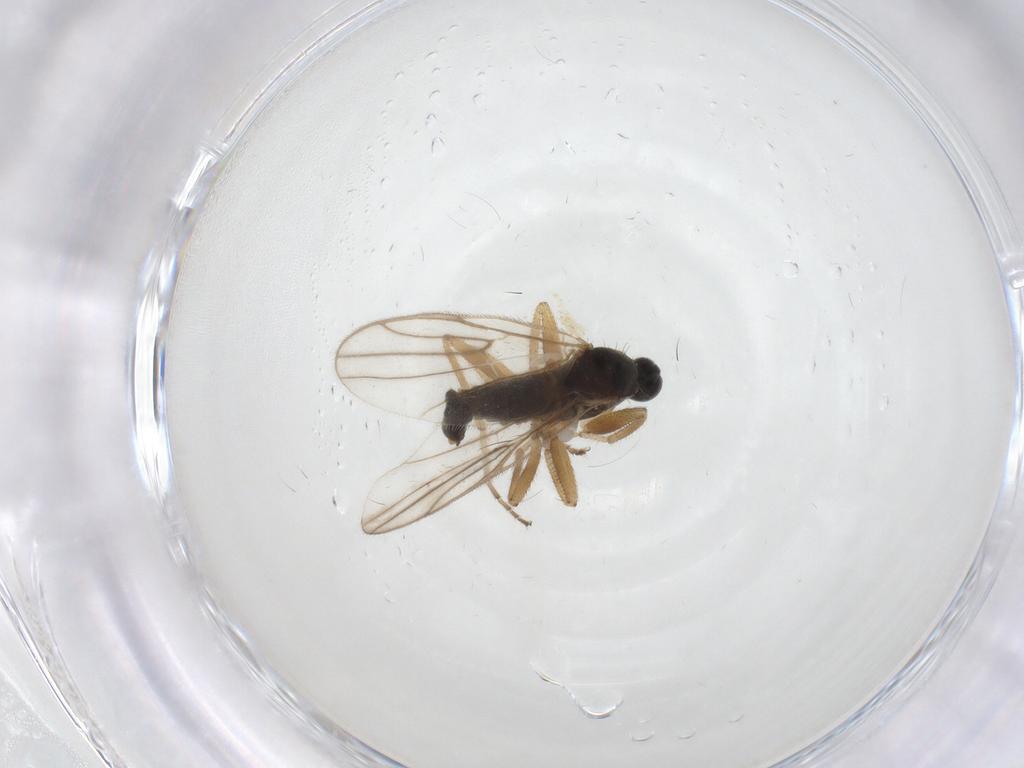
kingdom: Animalia
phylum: Arthropoda
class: Insecta
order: Diptera
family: Hybotidae
